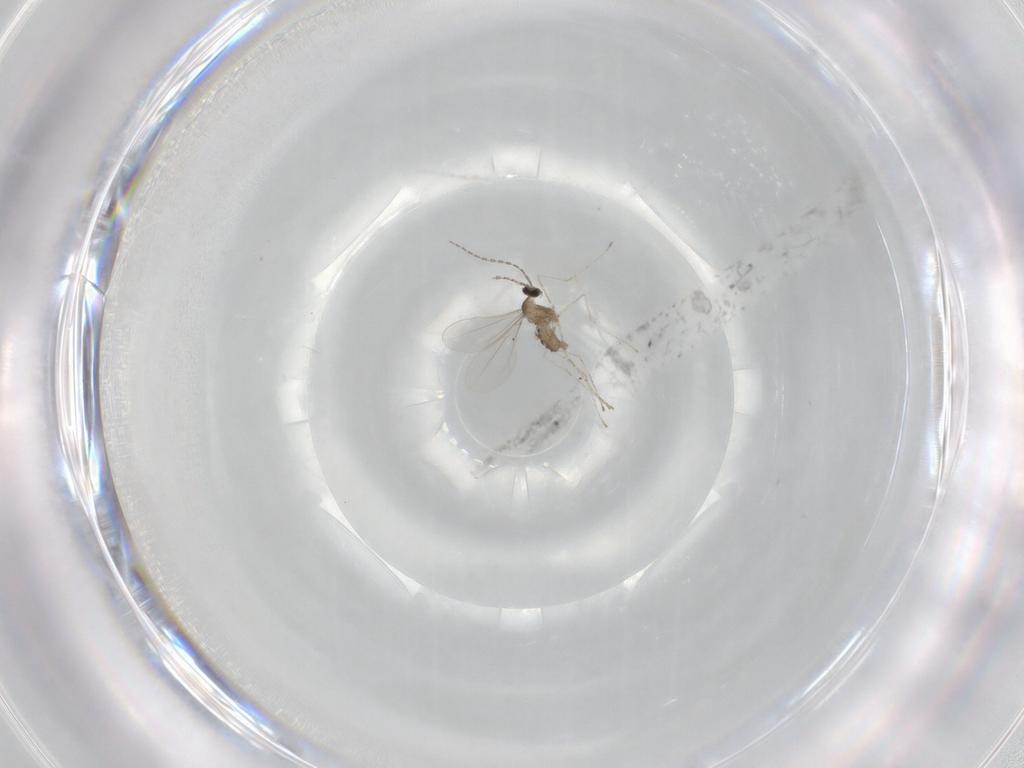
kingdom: Animalia
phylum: Arthropoda
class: Insecta
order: Diptera
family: Cecidomyiidae
